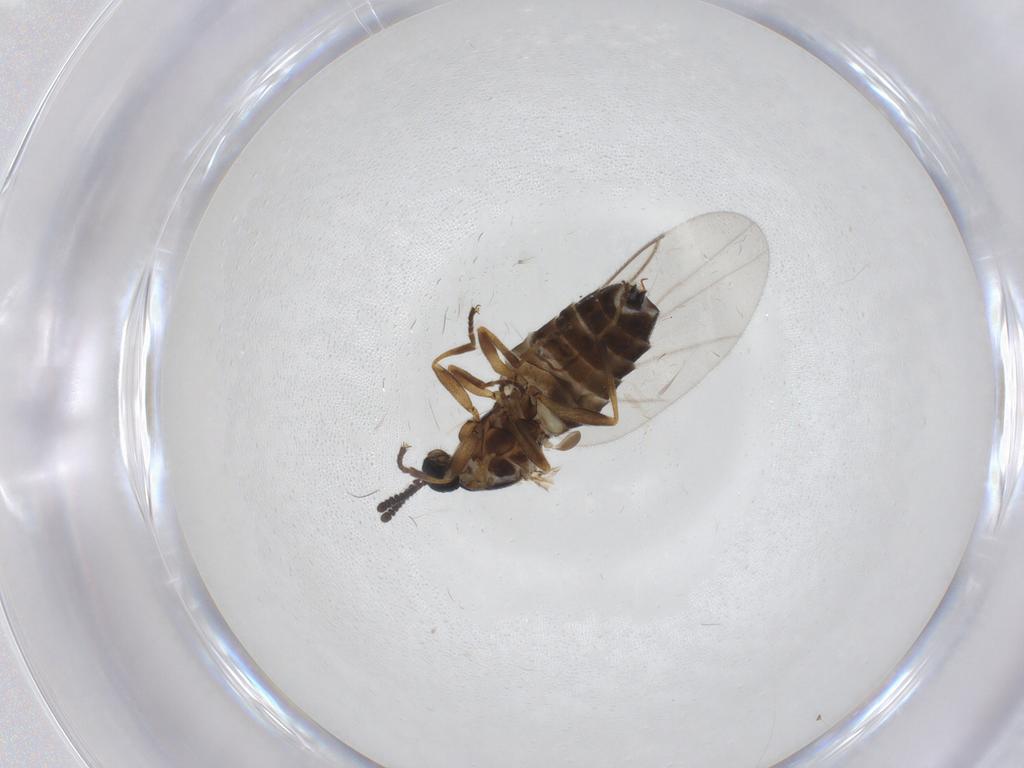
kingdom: Animalia
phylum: Arthropoda
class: Insecta
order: Diptera
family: Scatopsidae
